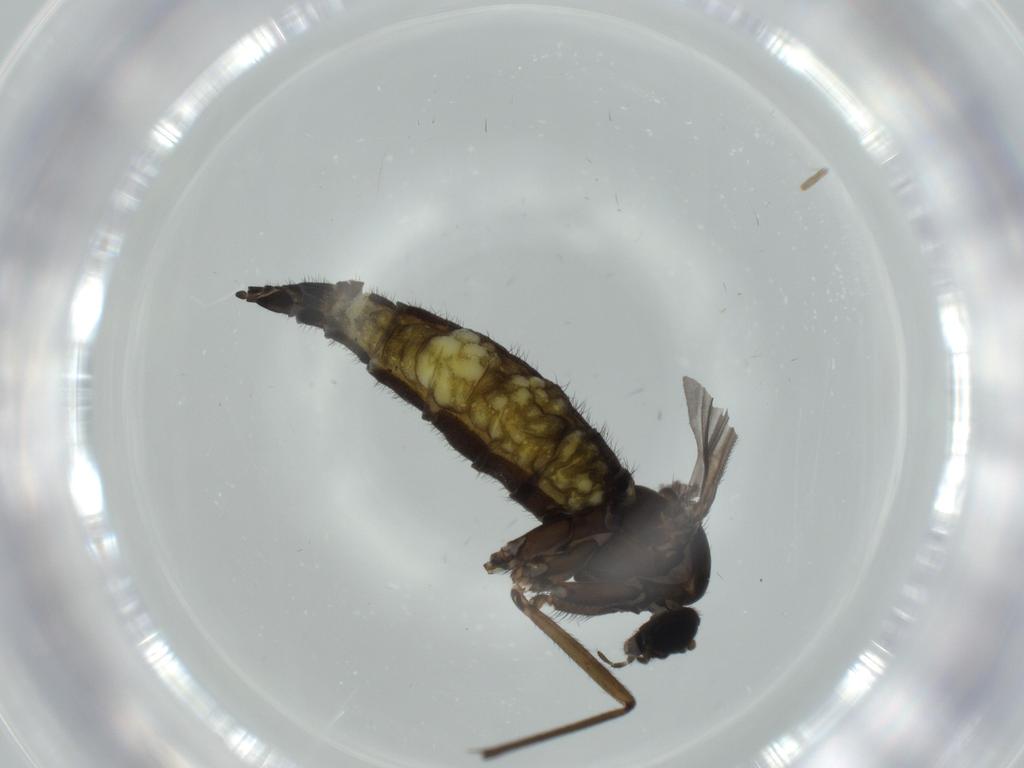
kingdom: Animalia
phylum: Arthropoda
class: Insecta
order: Diptera
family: Sciaridae
